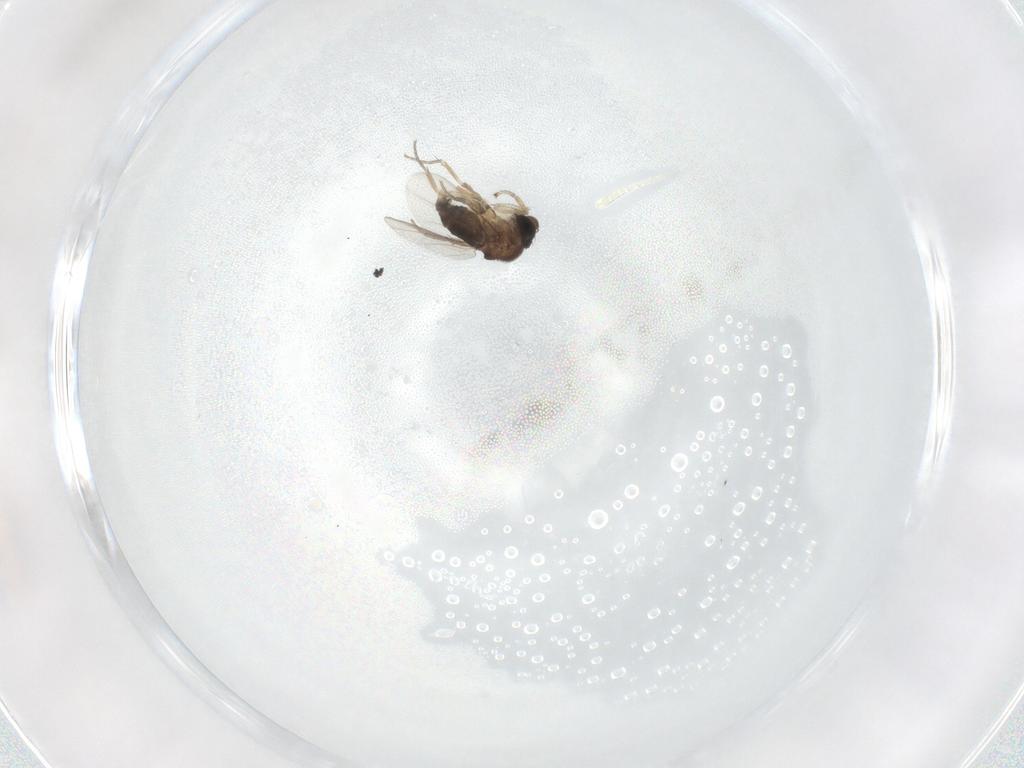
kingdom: Animalia
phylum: Arthropoda
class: Insecta
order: Diptera
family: Phoridae
